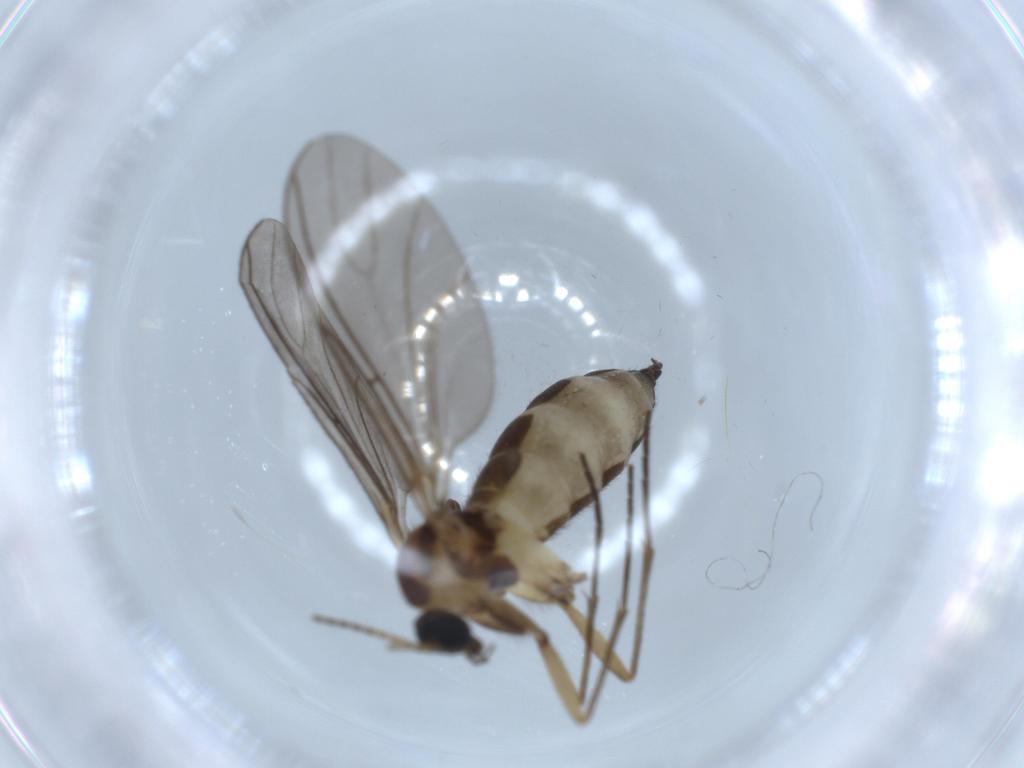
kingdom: Animalia
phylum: Arthropoda
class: Insecta
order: Diptera
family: Sciaridae
